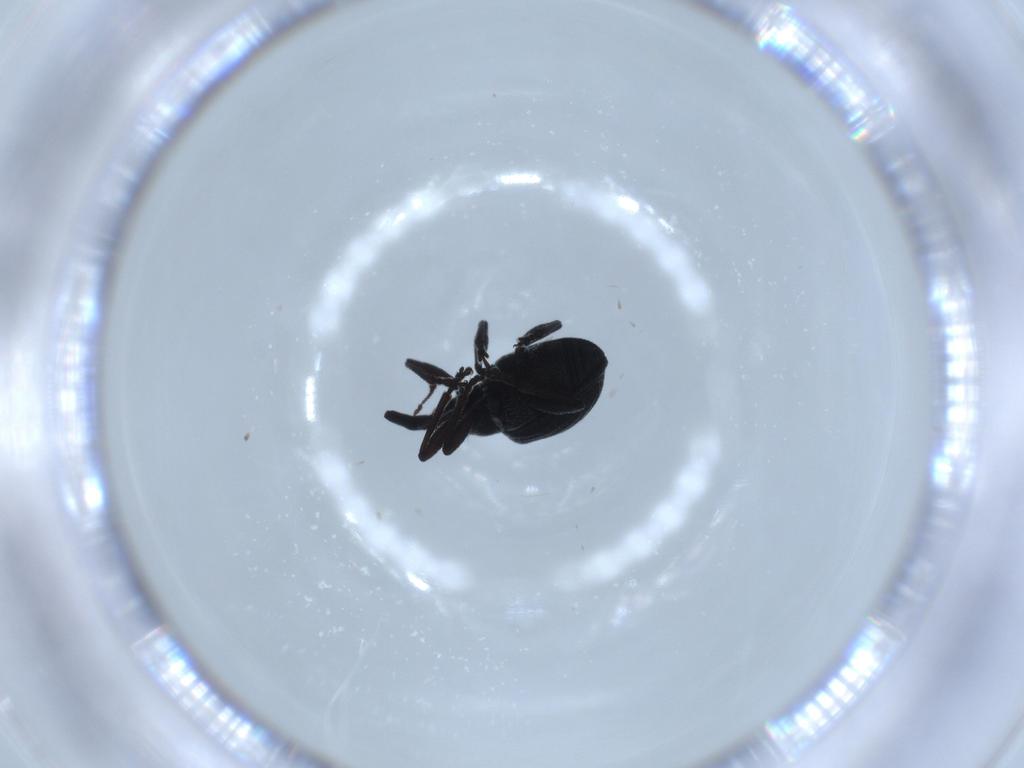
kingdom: Animalia
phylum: Arthropoda
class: Insecta
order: Coleoptera
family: Brentidae
